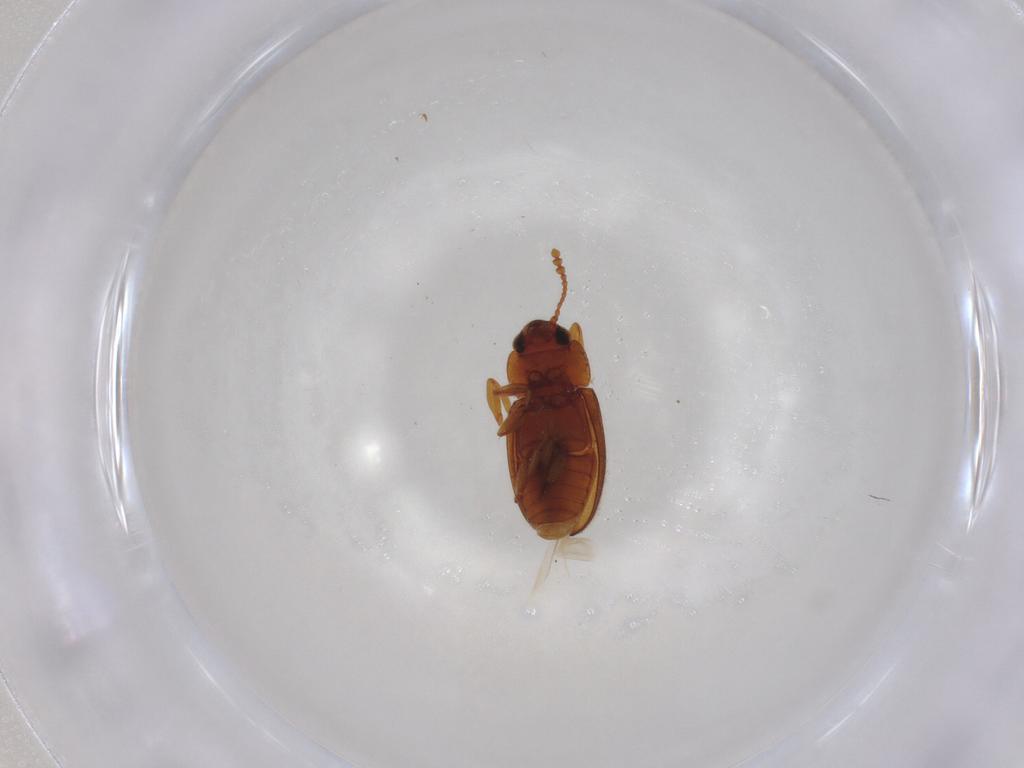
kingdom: Animalia
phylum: Arthropoda
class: Insecta
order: Coleoptera
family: Erotylidae
